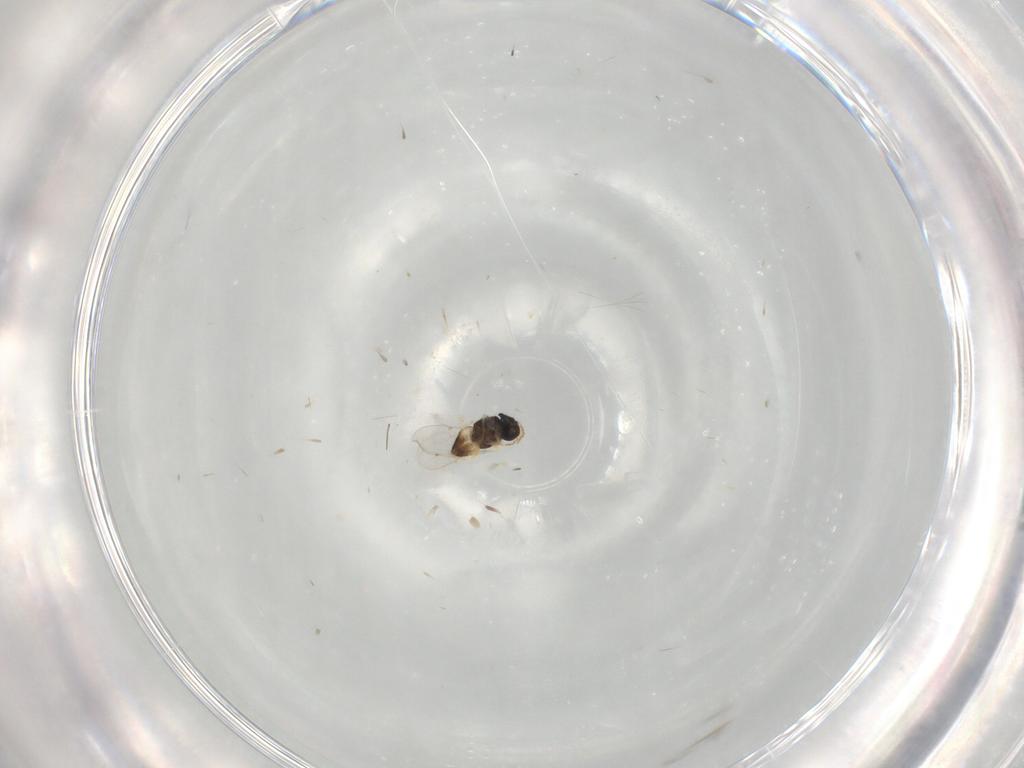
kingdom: Animalia
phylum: Arthropoda
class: Insecta
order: Hymenoptera
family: Encyrtidae
